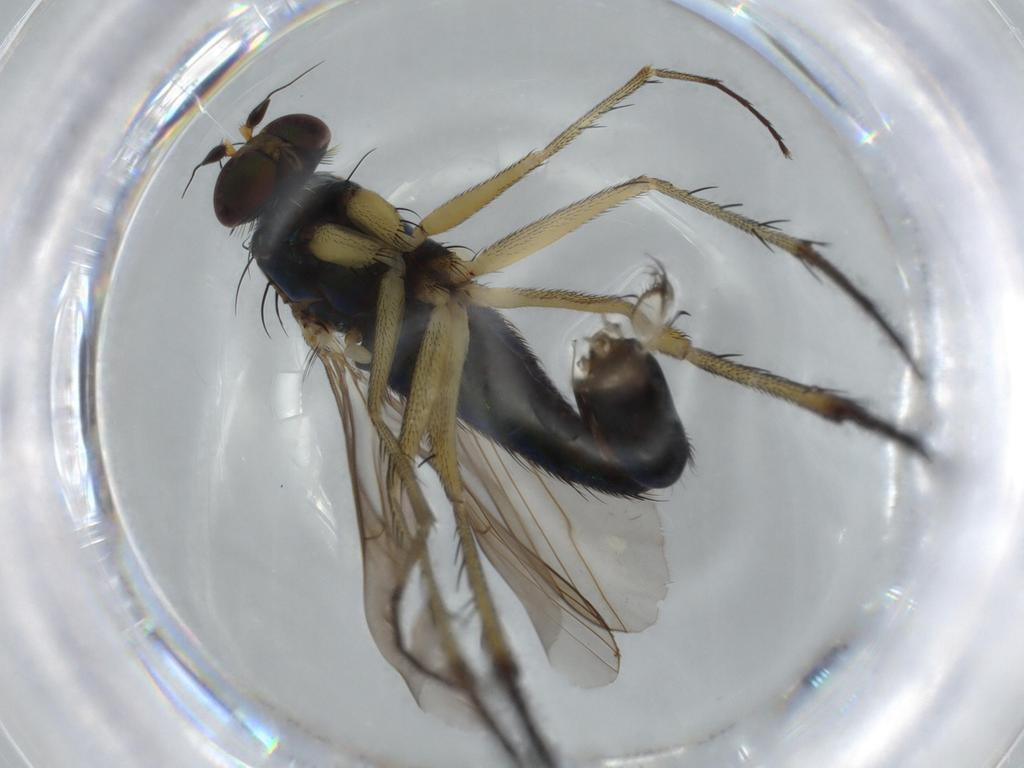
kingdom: Animalia
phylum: Arthropoda
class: Insecta
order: Diptera
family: Dolichopodidae
